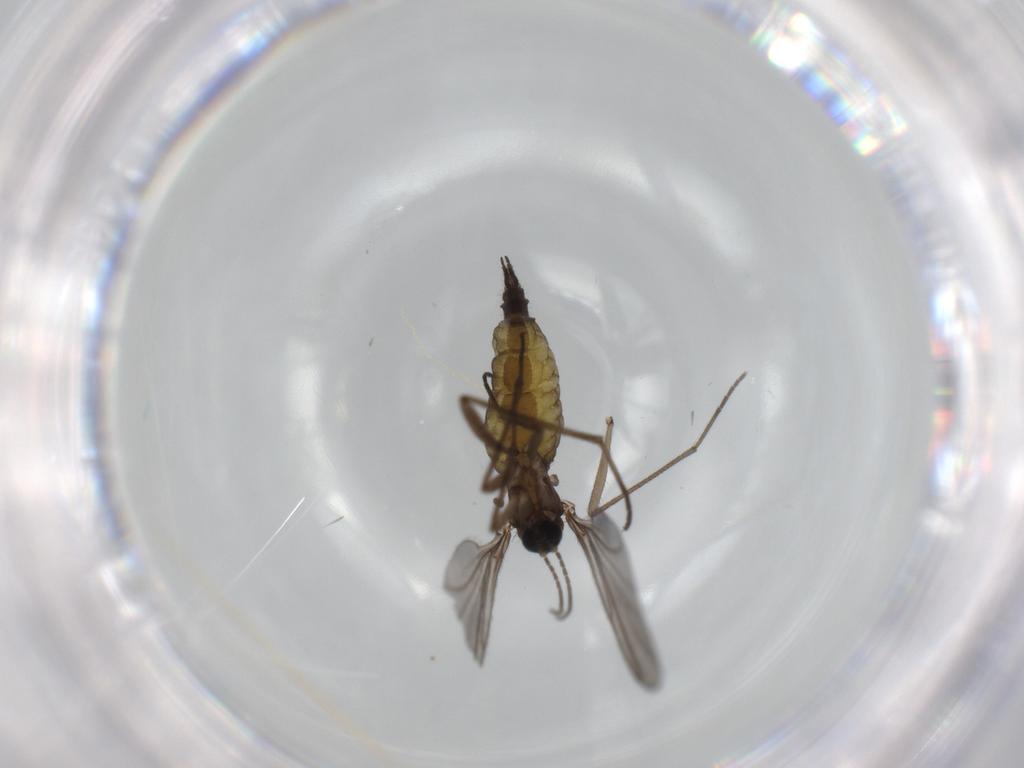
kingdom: Animalia
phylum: Arthropoda
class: Insecta
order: Diptera
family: Sciaridae
